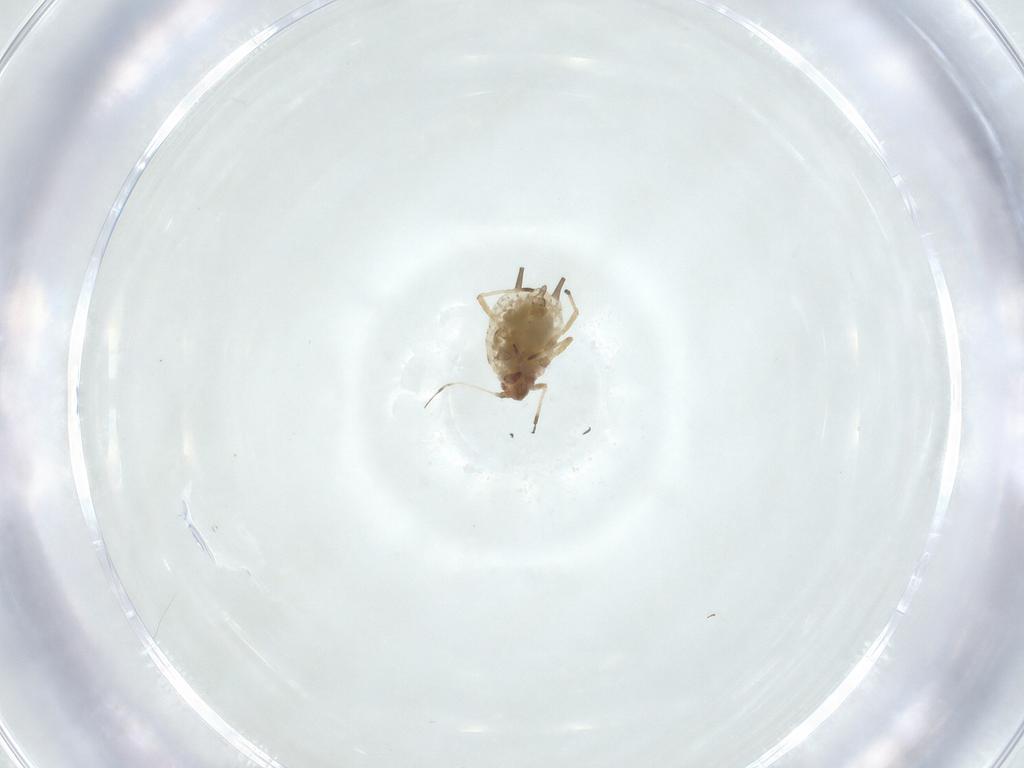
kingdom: Animalia
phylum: Arthropoda
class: Insecta
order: Hemiptera
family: Aphididae
